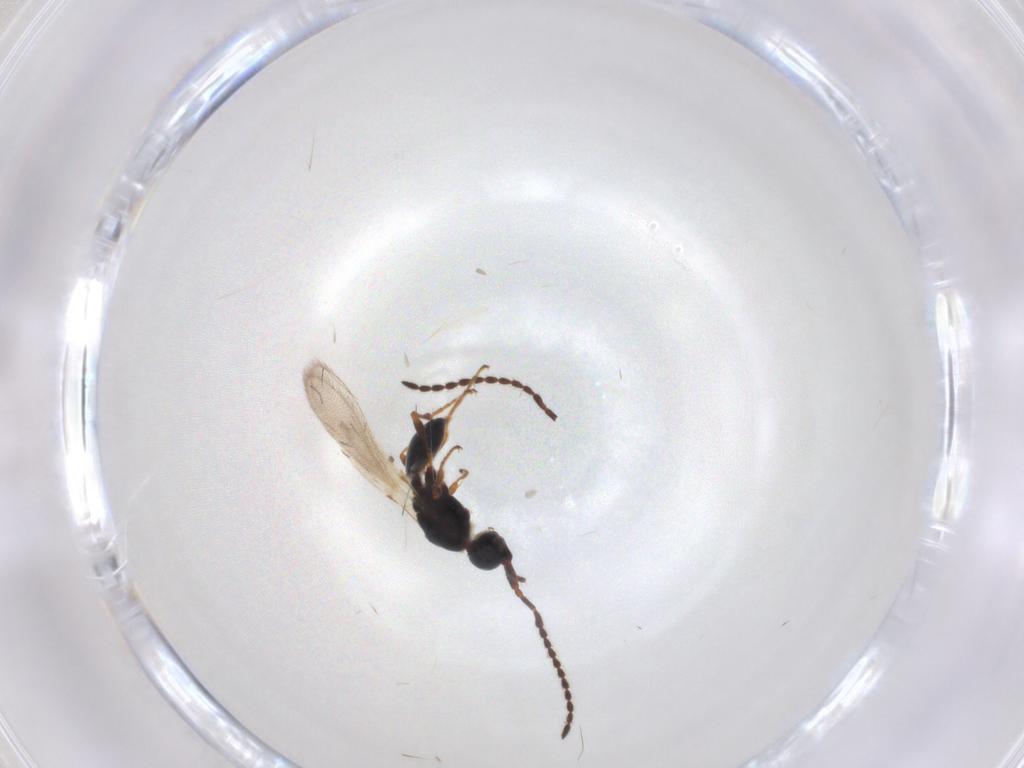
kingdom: Animalia
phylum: Arthropoda
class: Insecta
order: Hymenoptera
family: Diapriidae
